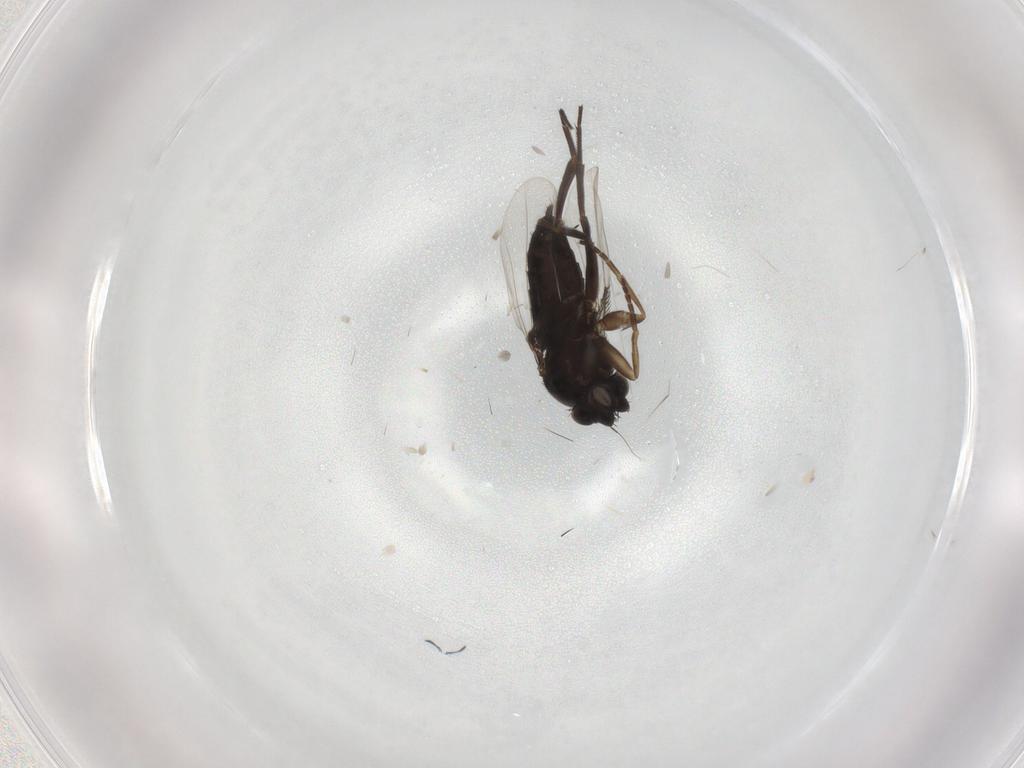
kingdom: Animalia
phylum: Arthropoda
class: Insecta
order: Diptera
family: Phoridae
